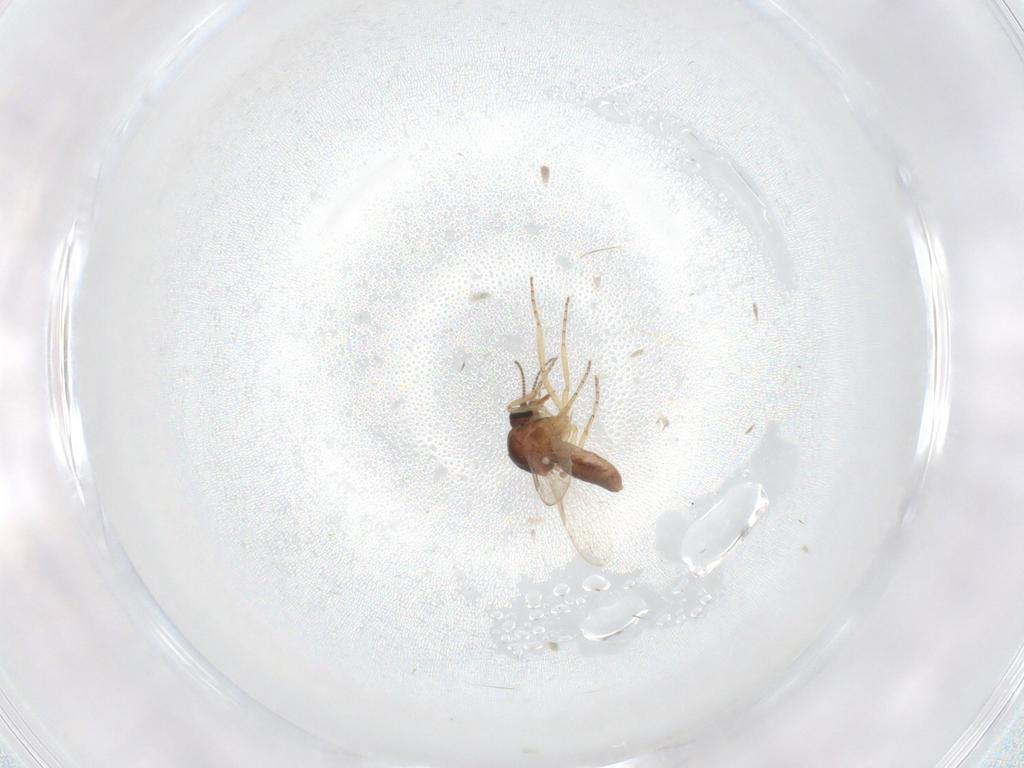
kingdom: Animalia
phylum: Arthropoda
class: Insecta
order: Diptera
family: Ceratopogonidae
